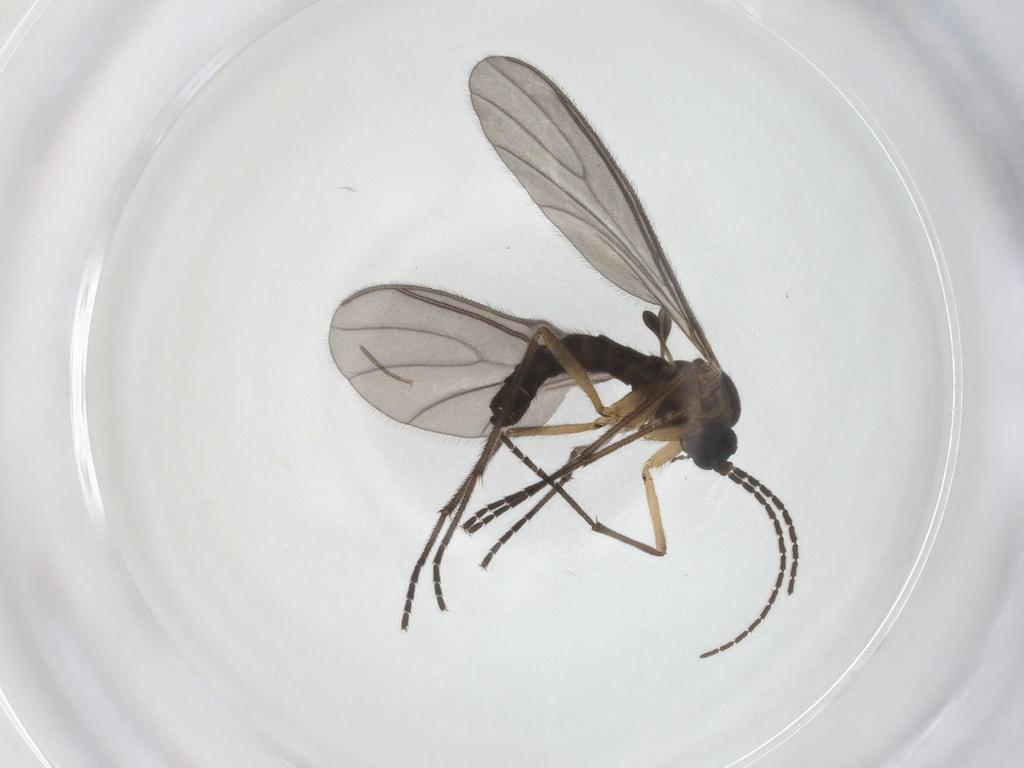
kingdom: Animalia
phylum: Arthropoda
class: Insecta
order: Diptera
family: Sciaridae
